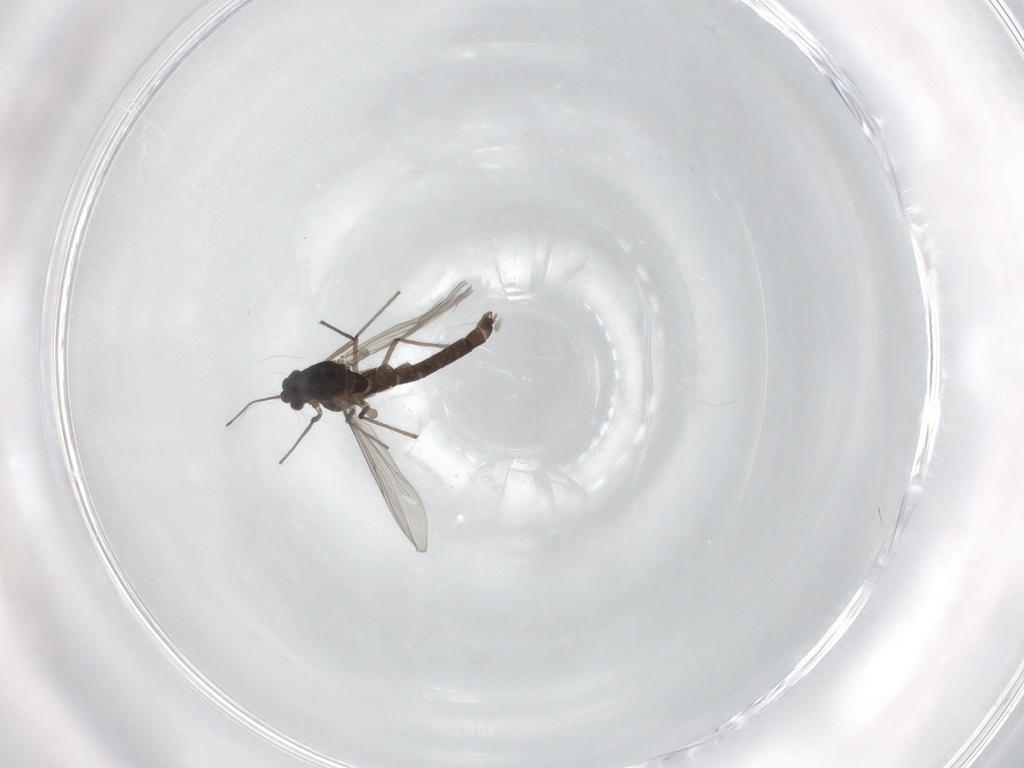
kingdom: Animalia
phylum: Arthropoda
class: Insecta
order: Diptera
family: Chironomidae
